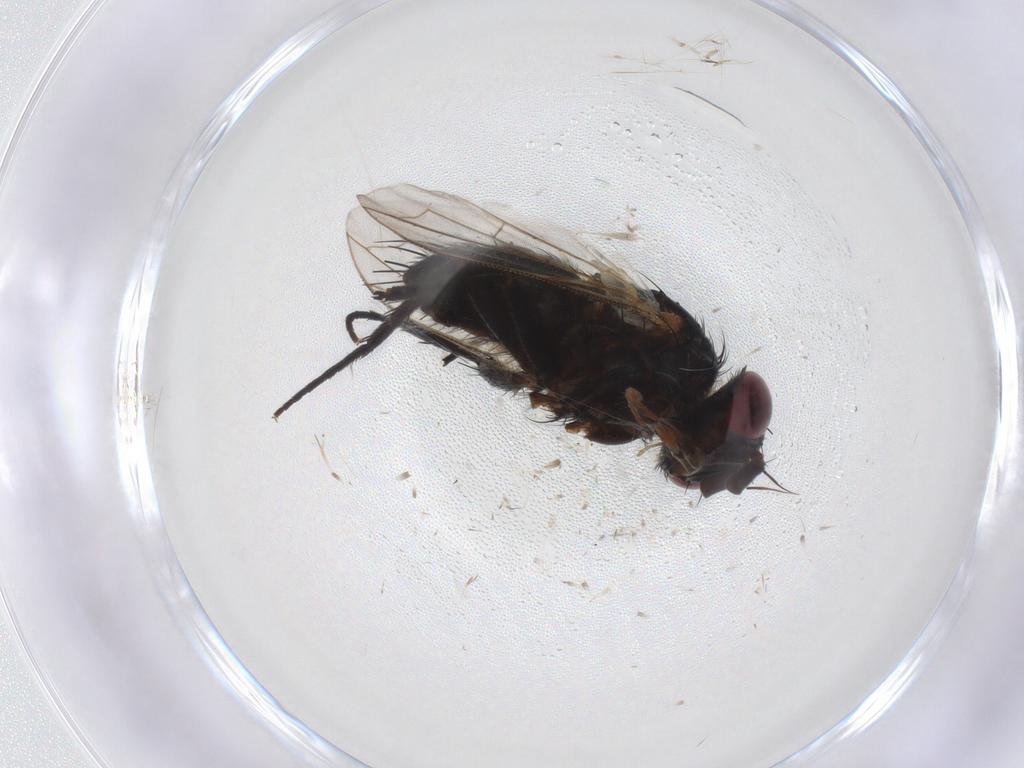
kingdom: Animalia
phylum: Arthropoda
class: Insecta
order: Diptera
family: Tachinidae
